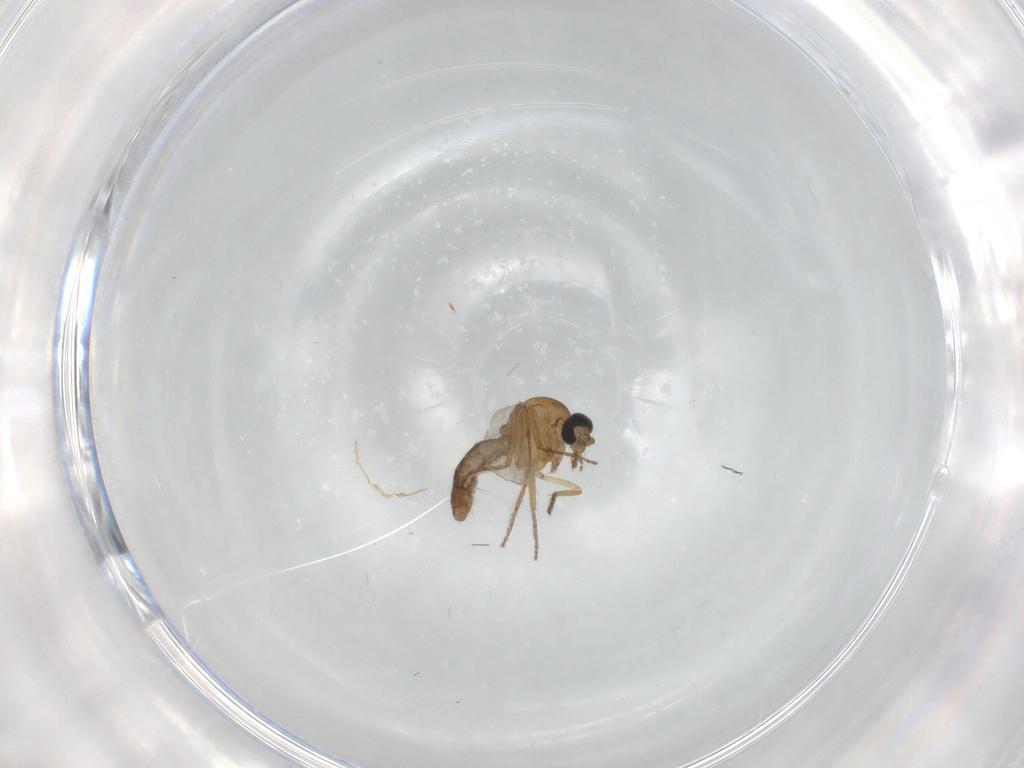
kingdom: Animalia
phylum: Arthropoda
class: Insecta
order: Diptera
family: Ceratopogonidae
